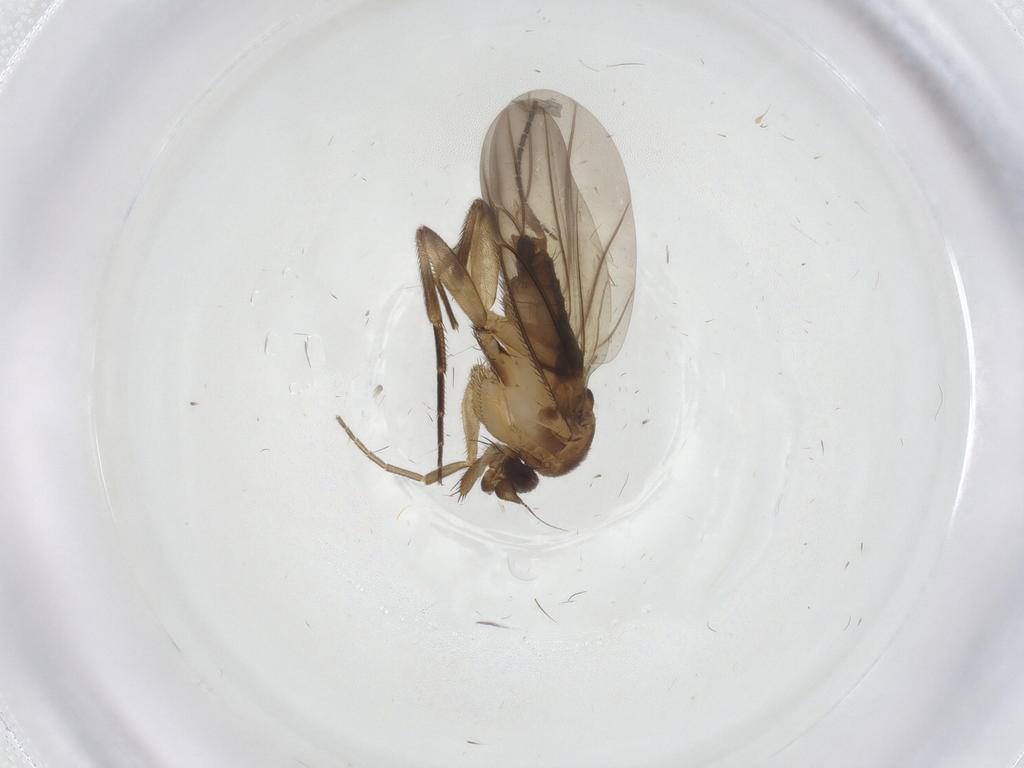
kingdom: Animalia
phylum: Arthropoda
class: Insecta
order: Diptera
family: Phoridae
